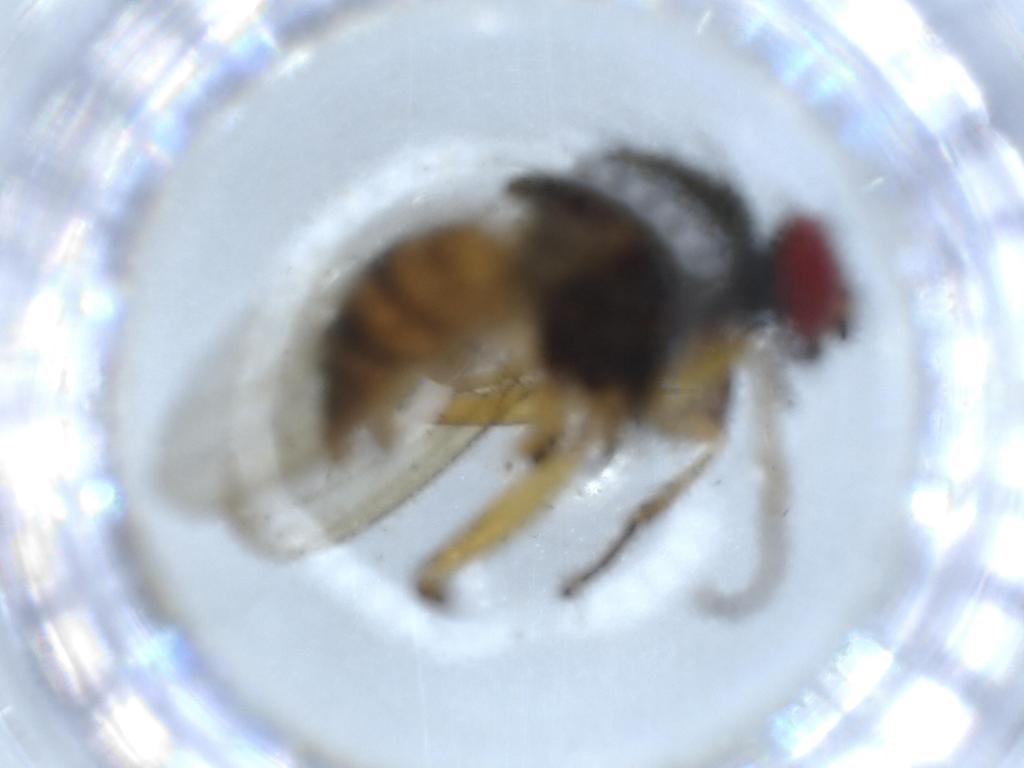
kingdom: Animalia
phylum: Arthropoda
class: Insecta
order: Diptera
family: Muscidae
